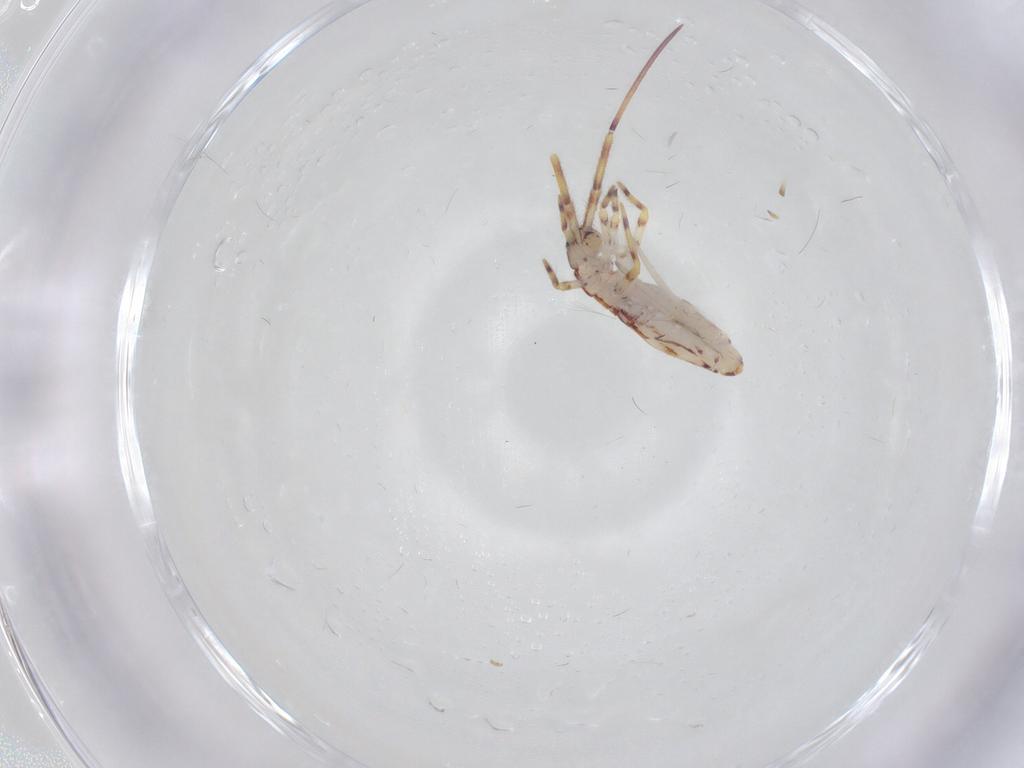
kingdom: Animalia
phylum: Arthropoda
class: Collembola
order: Entomobryomorpha
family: Entomobryidae
